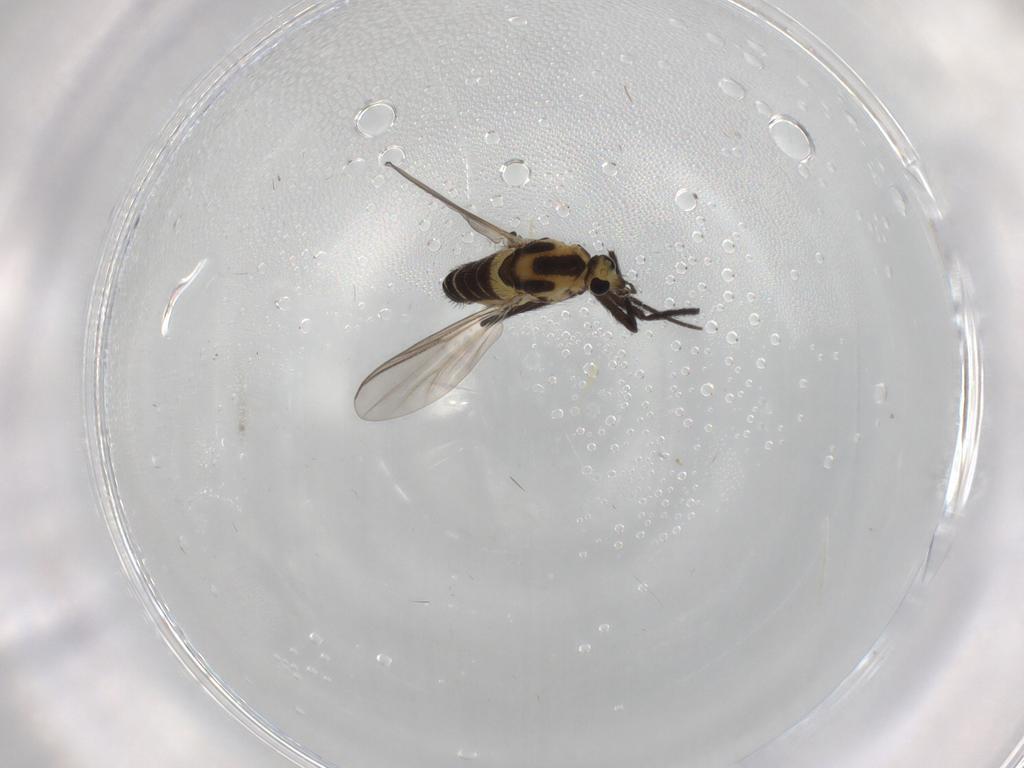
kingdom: Animalia
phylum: Arthropoda
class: Insecta
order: Diptera
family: Chironomidae
